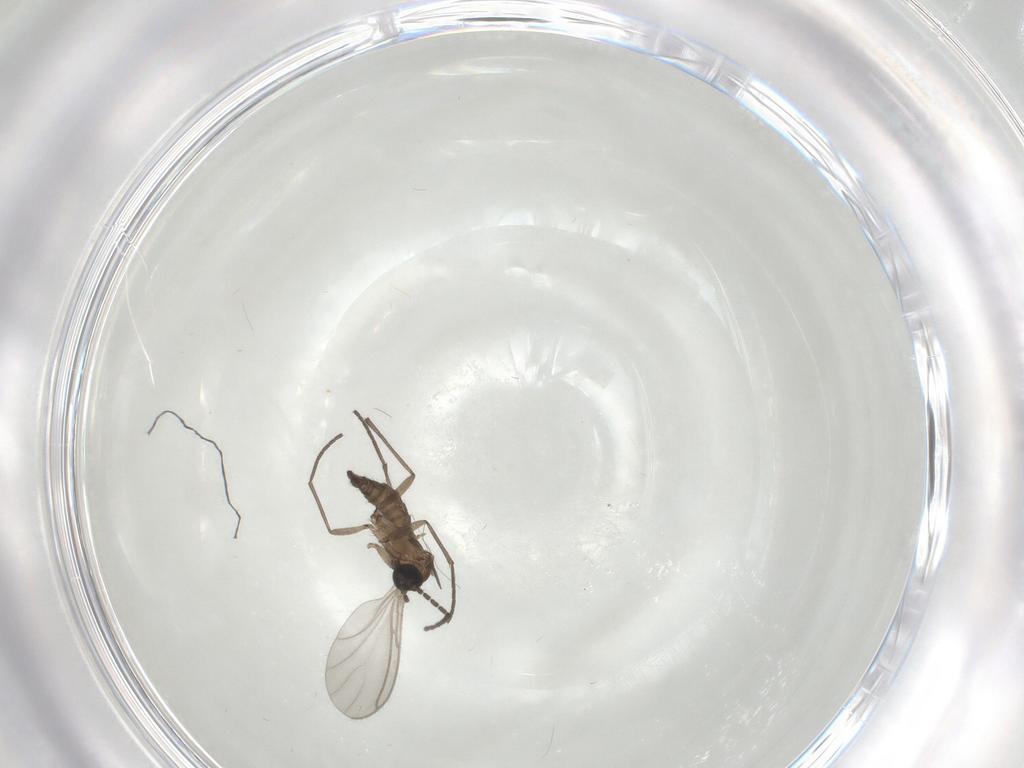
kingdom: Animalia
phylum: Arthropoda
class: Insecta
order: Diptera
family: Sciaridae
